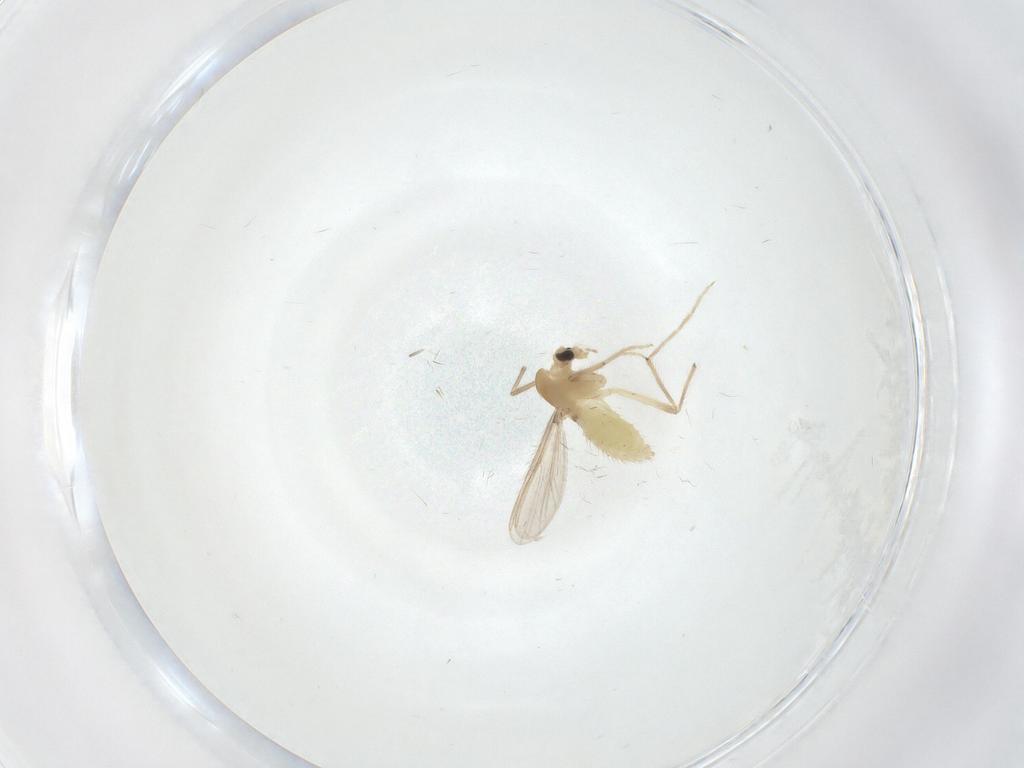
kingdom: Animalia
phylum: Arthropoda
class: Insecta
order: Diptera
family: Chironomidae
